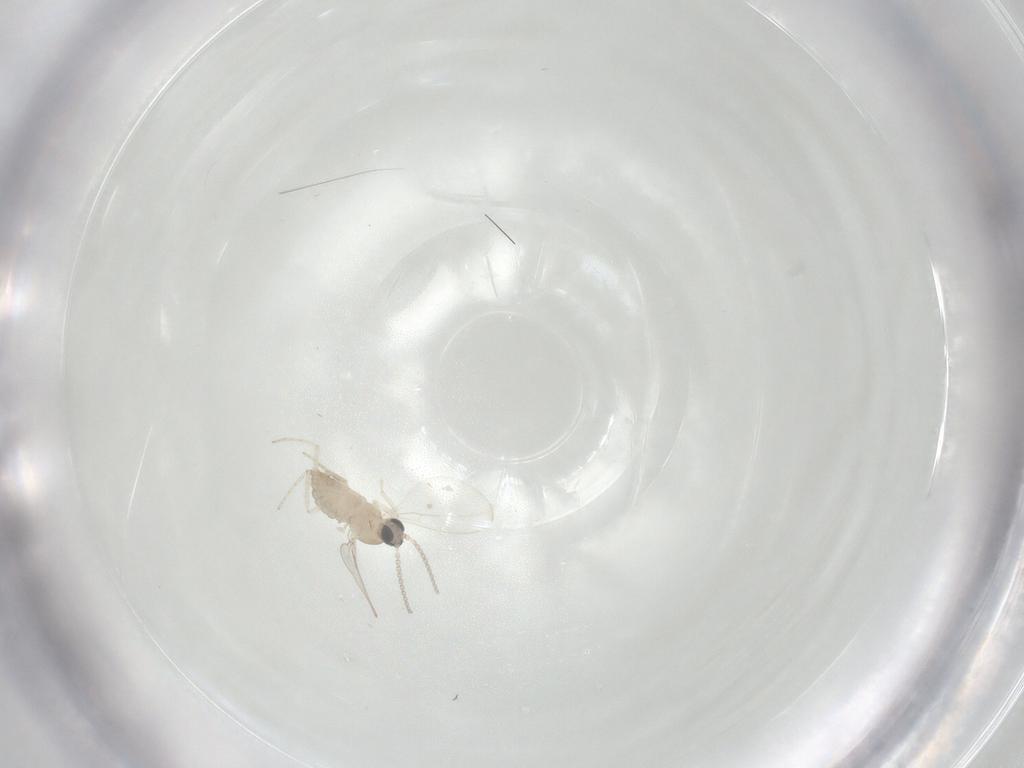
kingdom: Animalia
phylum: Arthropoda
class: Insecta
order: Diptera
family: Cecidomyiidae
